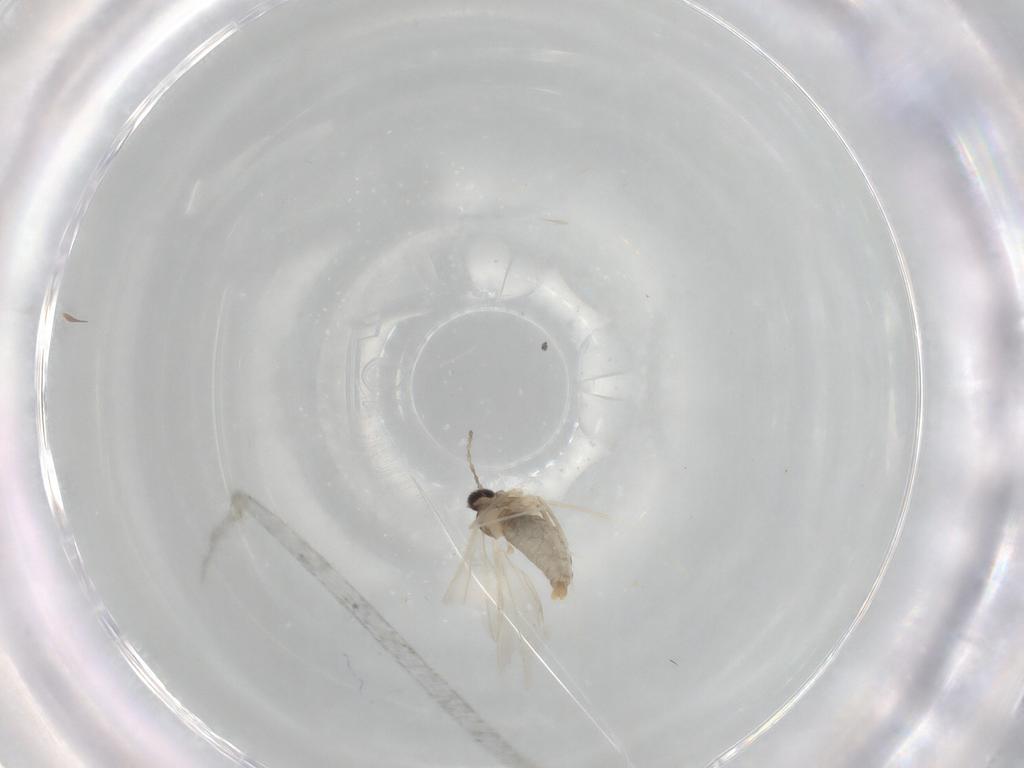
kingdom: Animalia
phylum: Arthropoda
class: Insecta
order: Diptera
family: Cecidomyiidae
